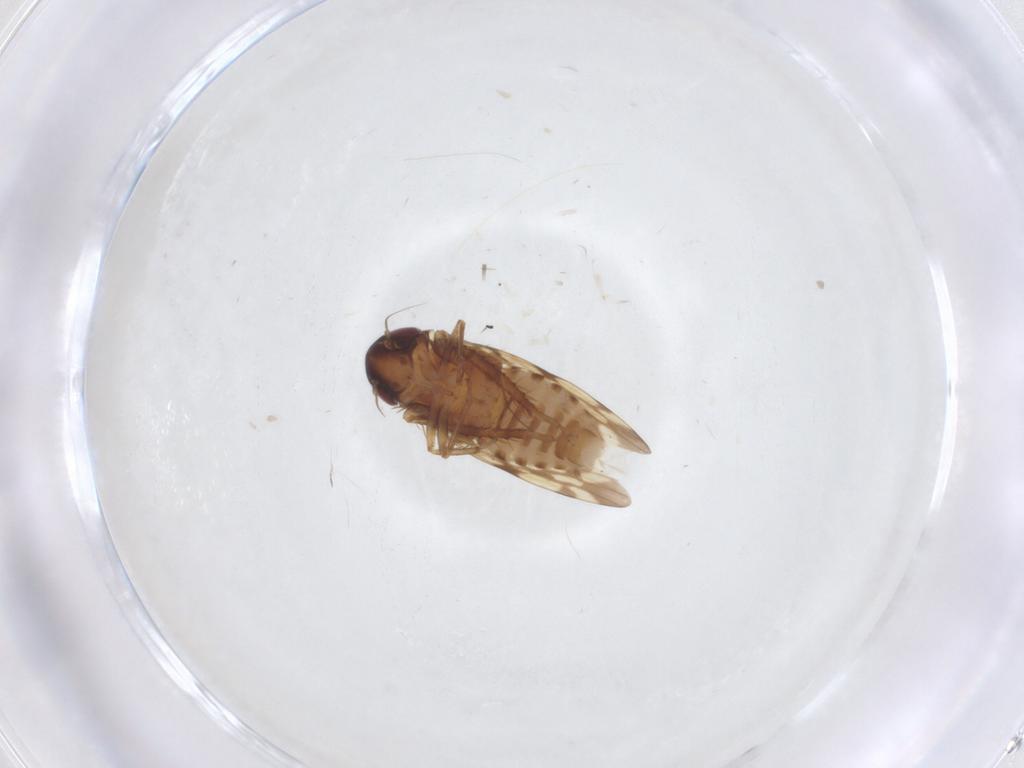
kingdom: Animalia
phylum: Arthropoda
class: Insecta
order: Hemiptera
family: Cicadellidae
